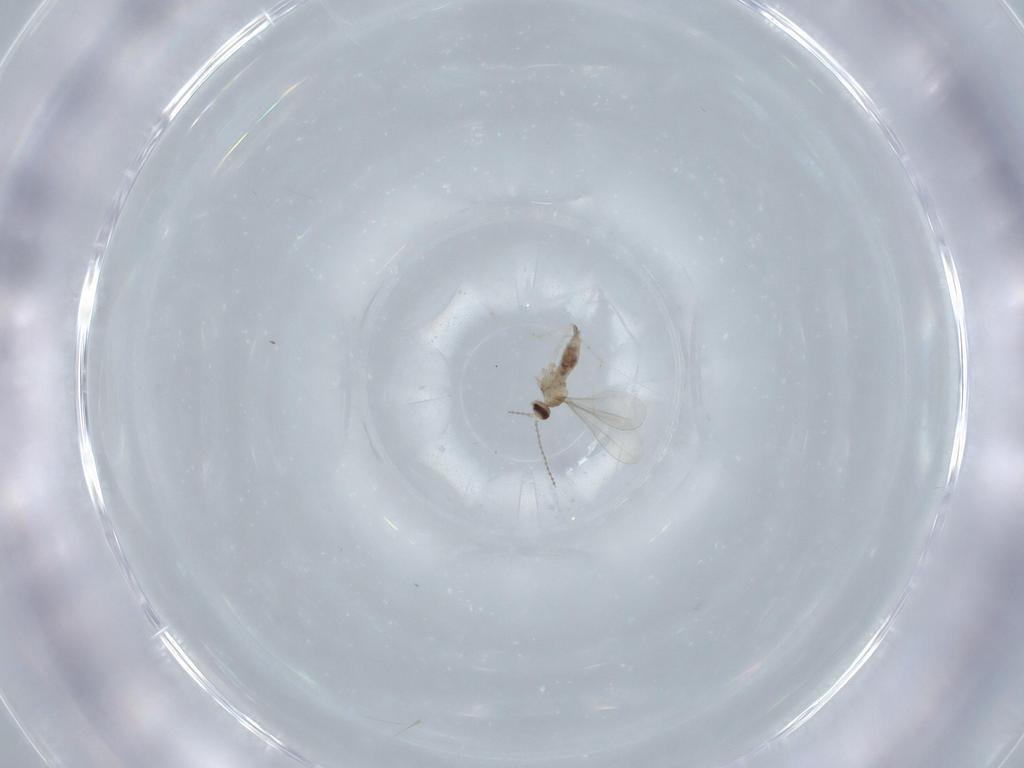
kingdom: Animalia
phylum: Arthropoda
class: Insecta
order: Diptera
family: Cecidomyiidae
